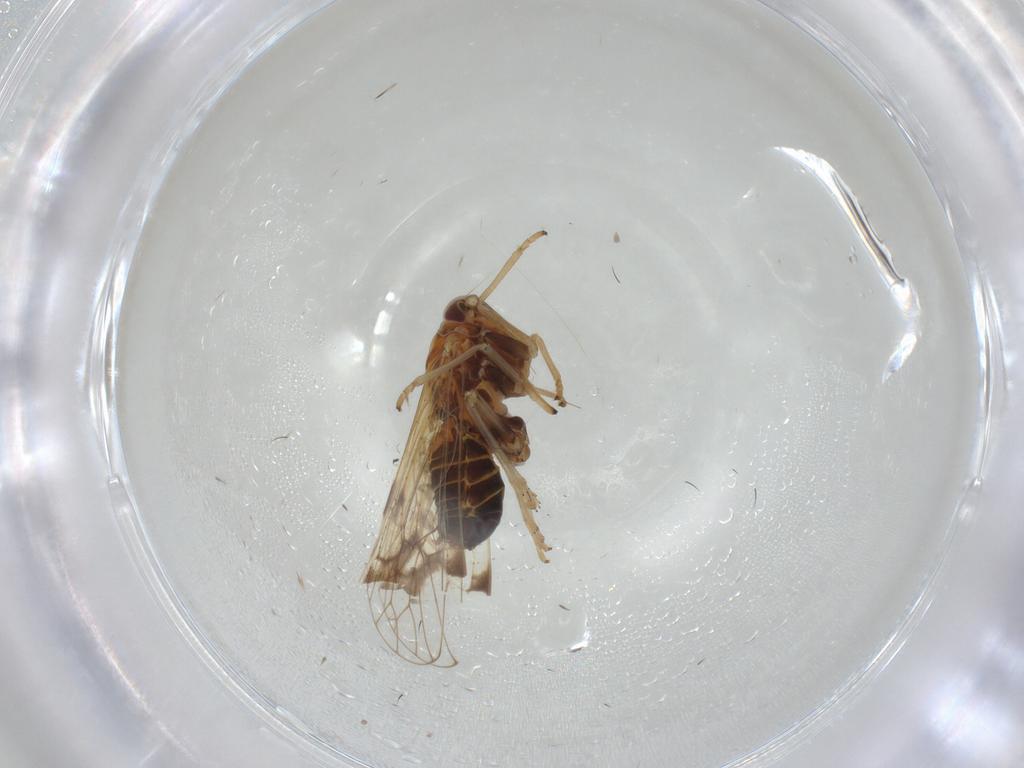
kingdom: Animalia
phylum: Arthropoda
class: Insecta
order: Hemiptera
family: Delphacidae
